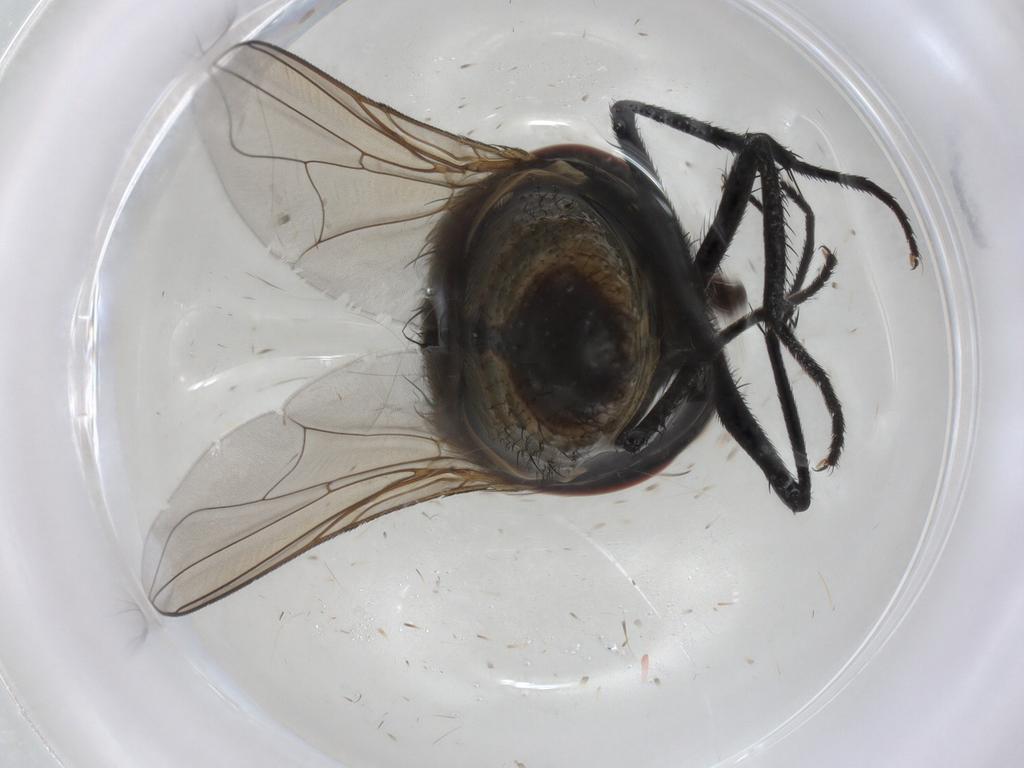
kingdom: Animalia
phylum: Arthropoda
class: Insecta
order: Diptera
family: Muscidae
